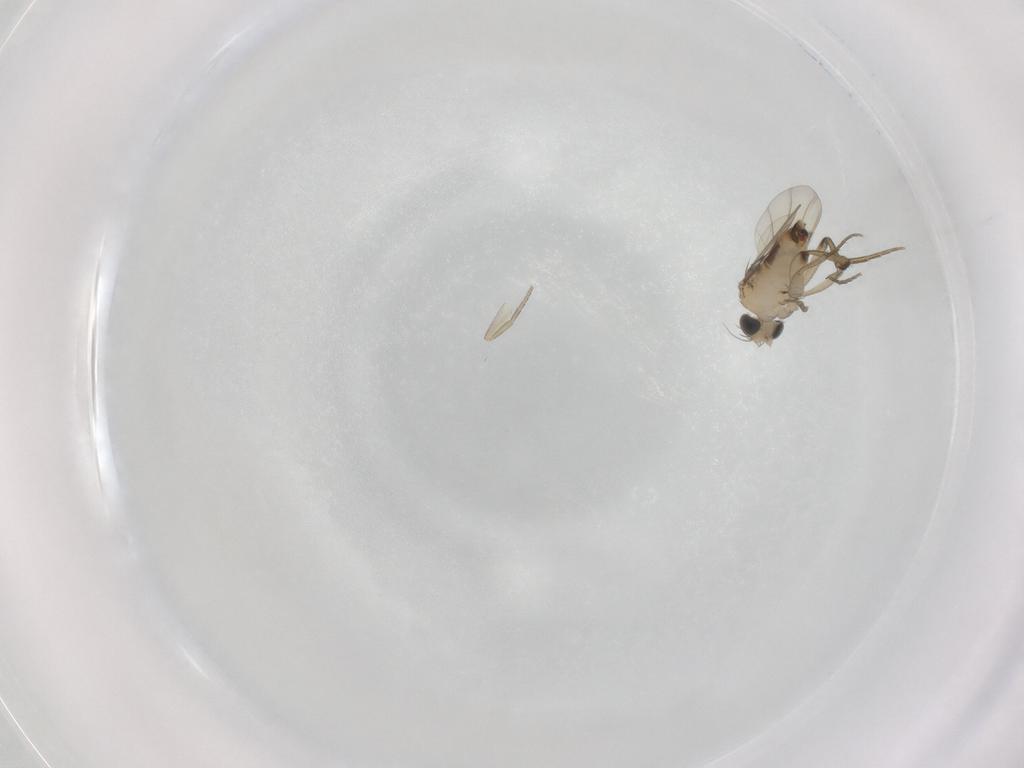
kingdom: Animalia
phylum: Arthropoda
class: Insecta
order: Diptera
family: Phoridae
